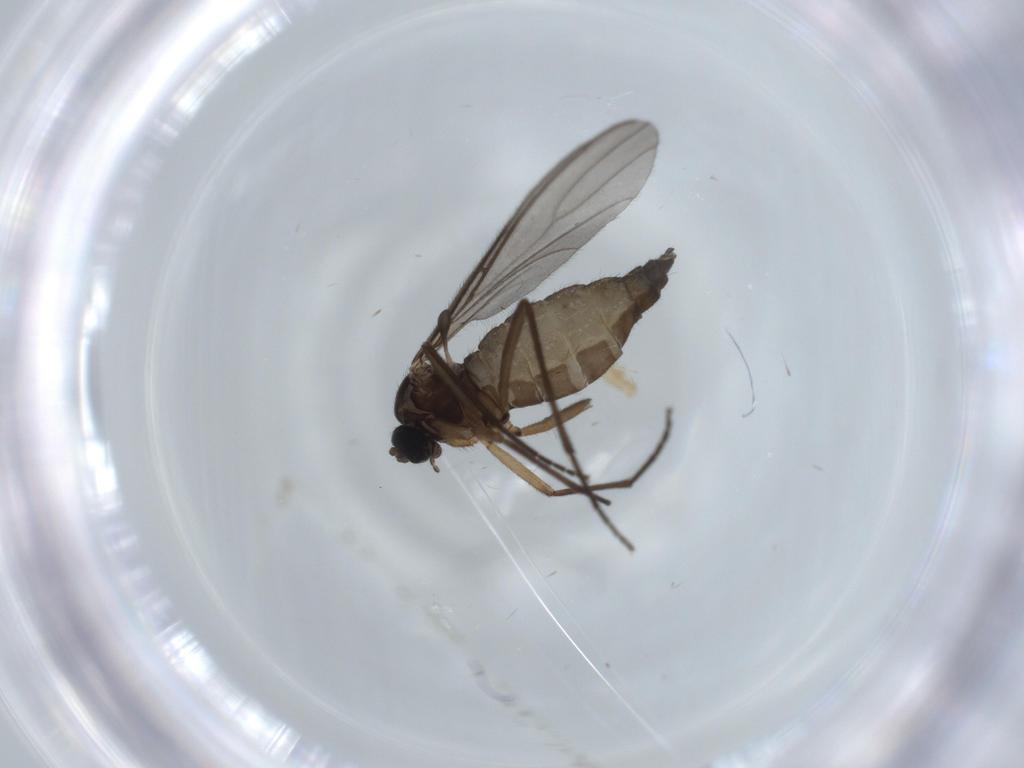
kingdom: Animalia
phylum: Arthropoda
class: Insecta
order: Diptera
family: Sciaridae
